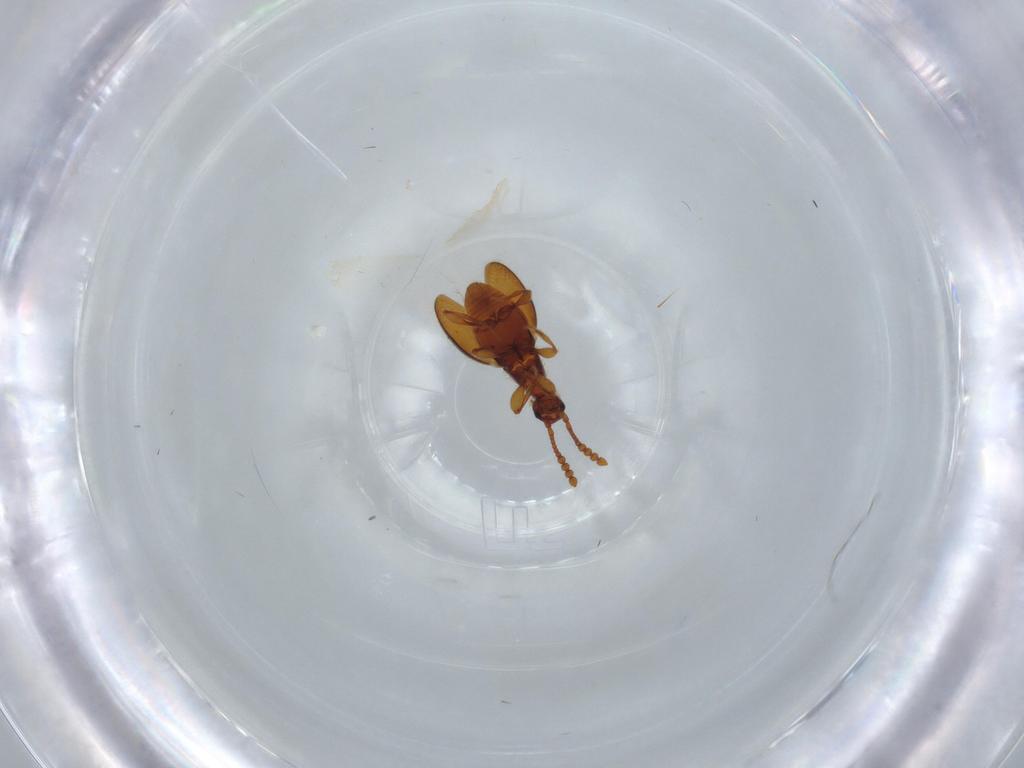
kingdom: Animalia
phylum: Arthropoda
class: Insecta
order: Coleoptera
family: Staphylinidae
